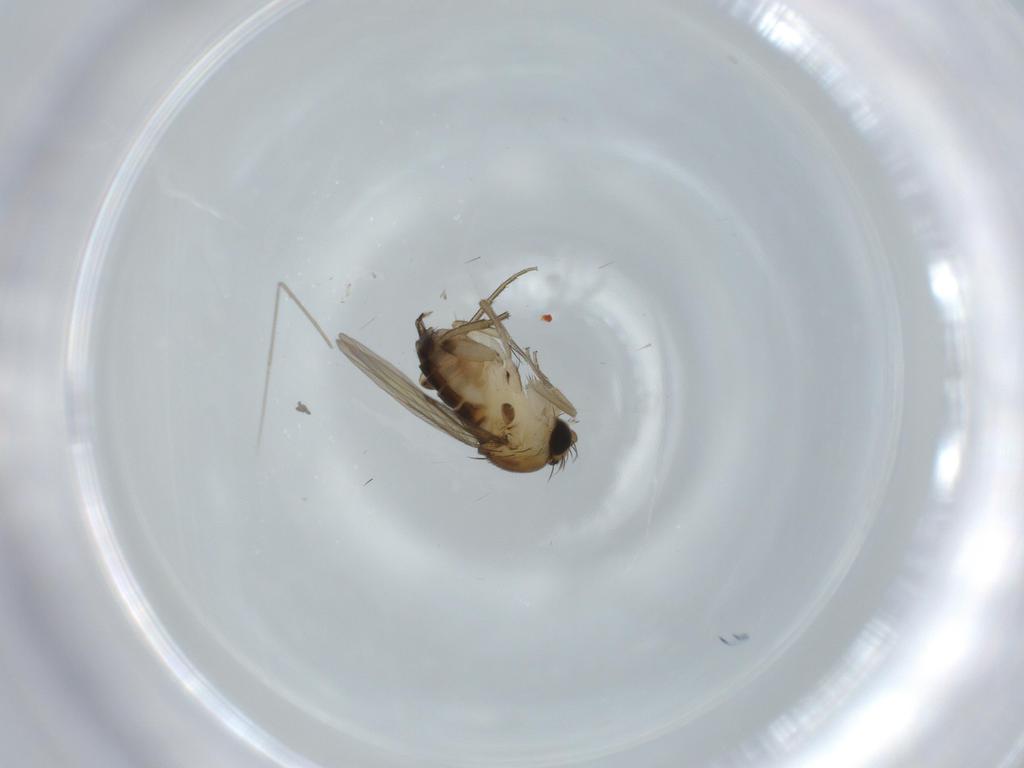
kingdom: Animalia
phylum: Arthropoda
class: Insecta
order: Diptera
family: Phoridae
